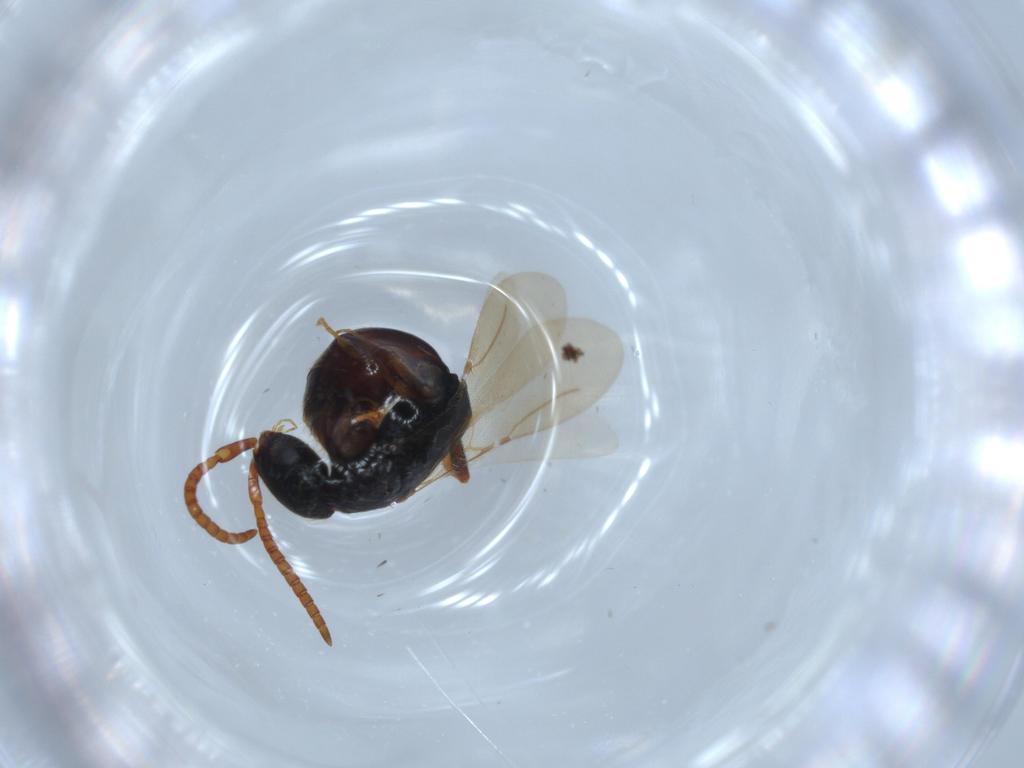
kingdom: Animalia
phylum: Arthropoda
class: Insecta
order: Hymenoptera
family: Bethylidae
